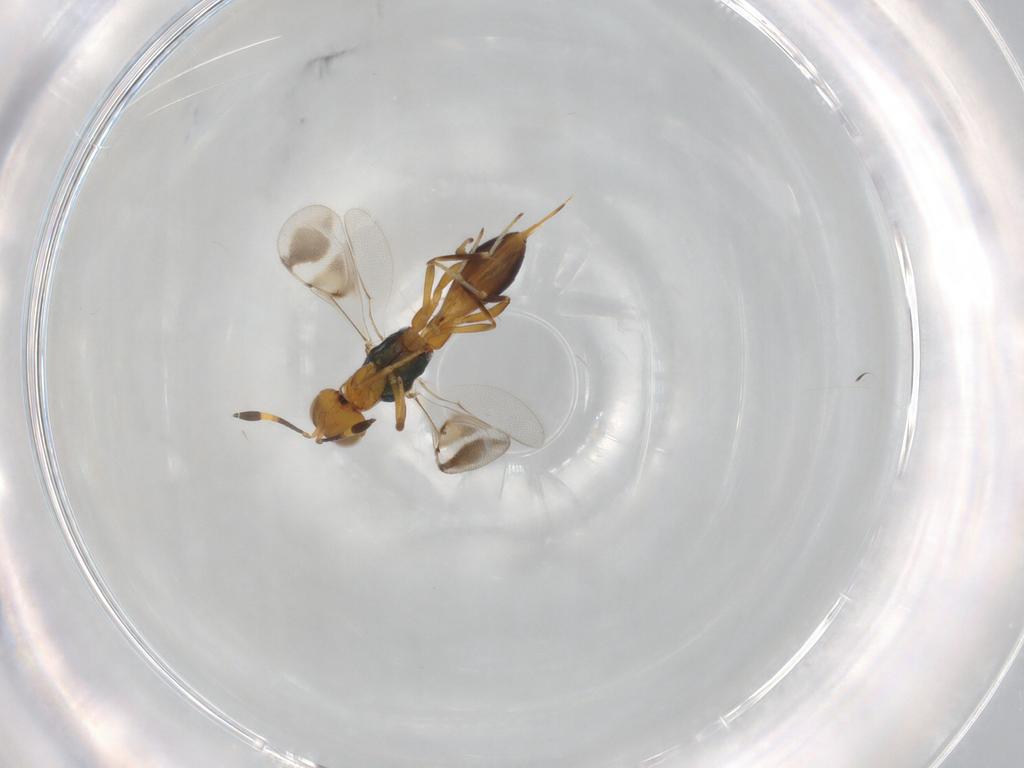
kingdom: Animalia
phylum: Arthropoda
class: Insecta
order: Hymenoptera
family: Eupelmidae
